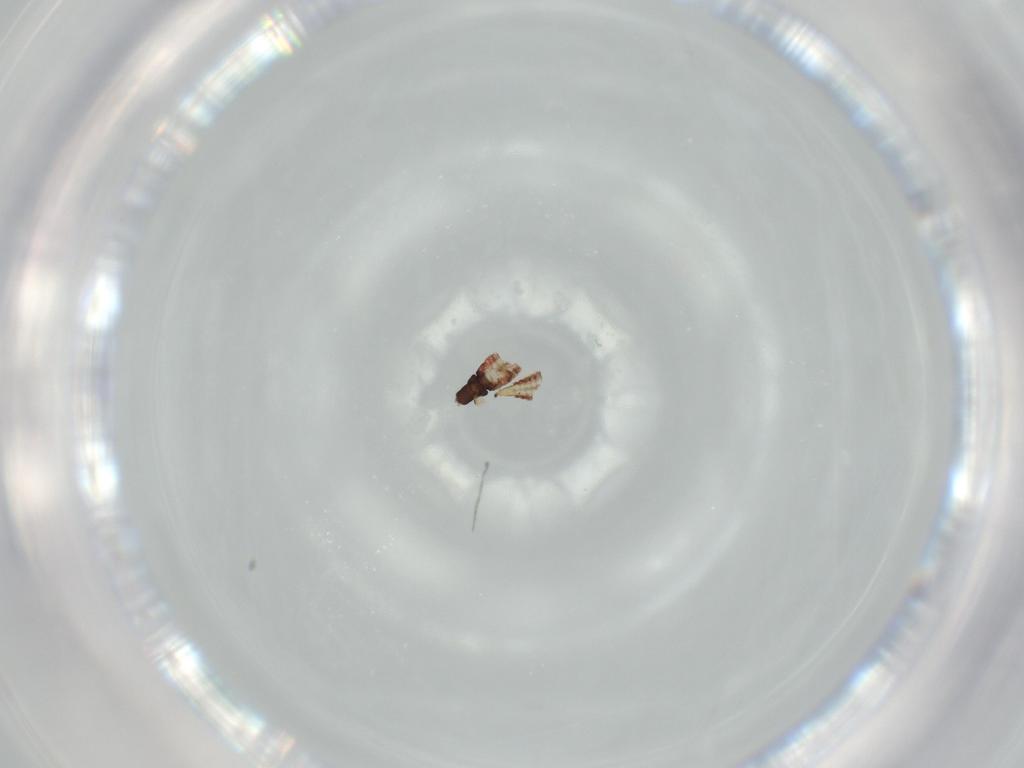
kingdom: Animalia
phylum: Arthropoda
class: Insecta
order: Thysanoptera
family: Phlaeothripidae
